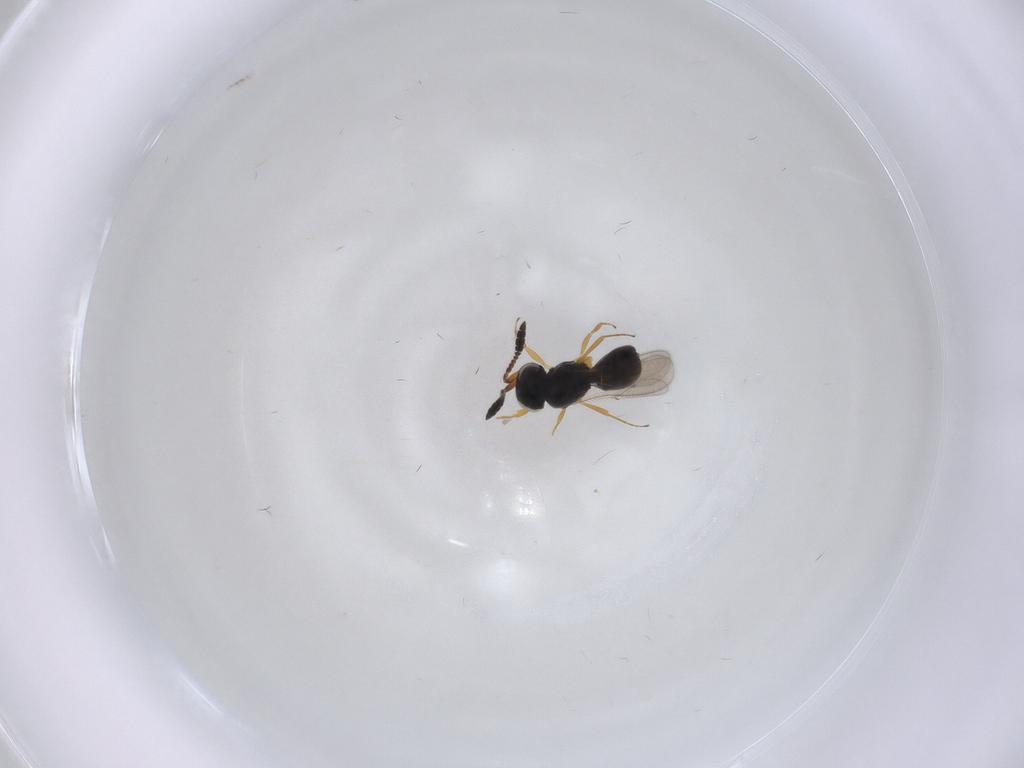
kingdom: Animalia
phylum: Arthropoda
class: Insecta
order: Hymenoptera
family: Scelionidae
